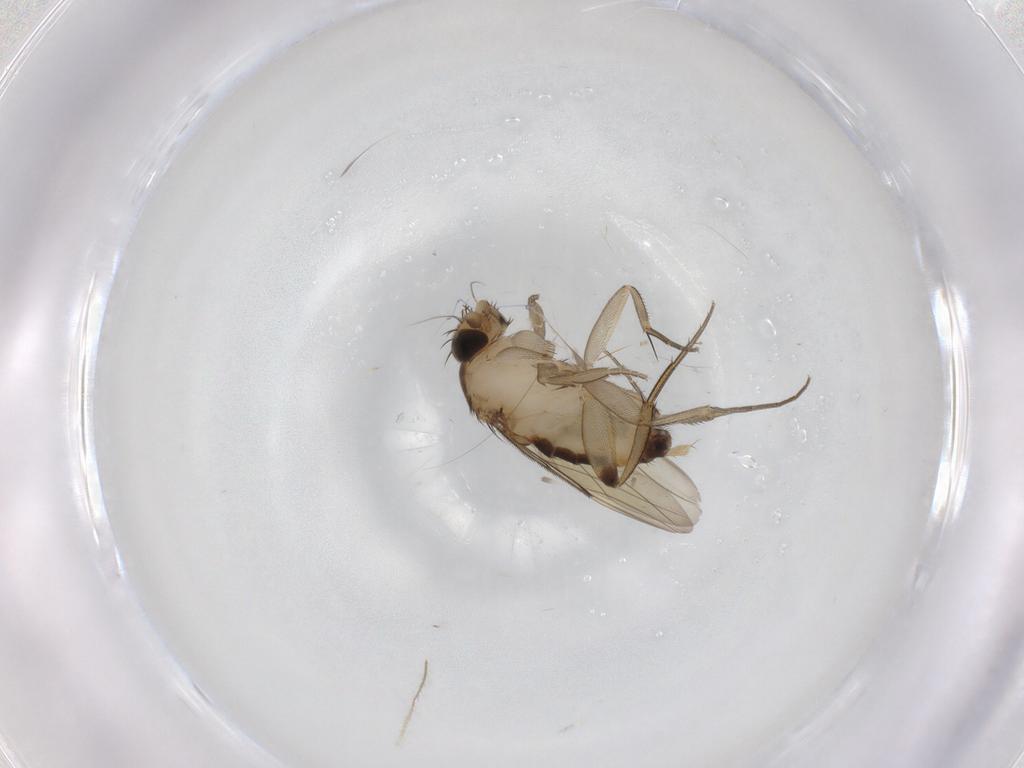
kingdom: Animalia
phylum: Arthropoda
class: Insecta
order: Diptera
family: Phoridae
